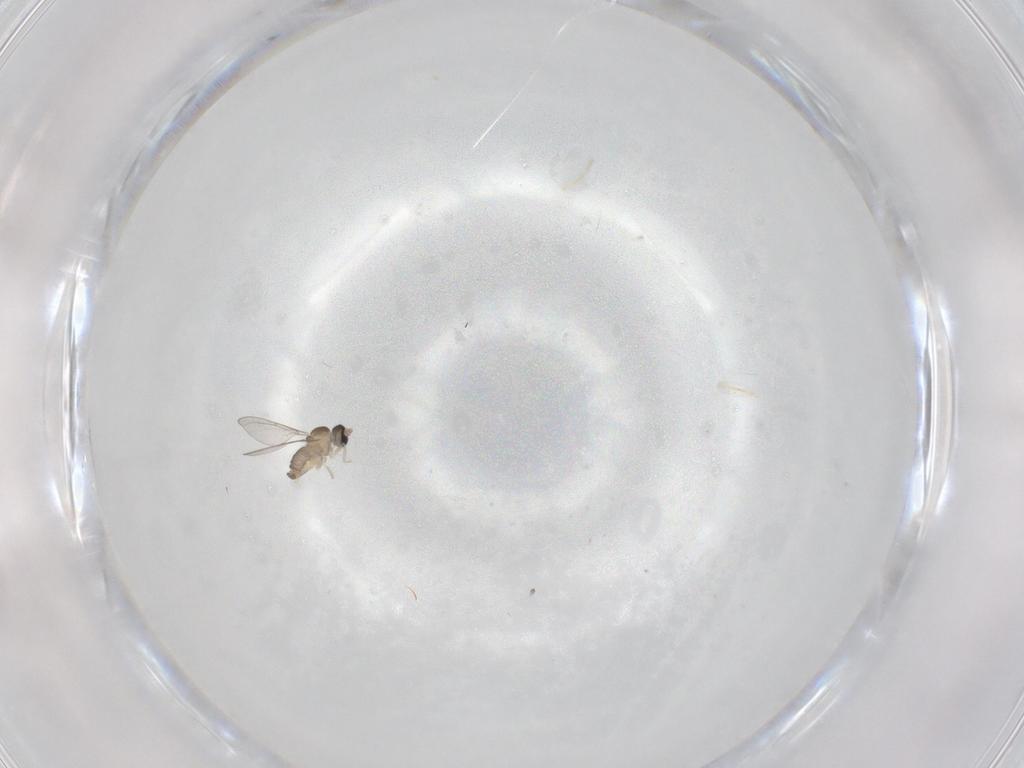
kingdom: Animalia
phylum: Arthropoda
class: Insecta
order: Diptera
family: Cecidomyiidae
